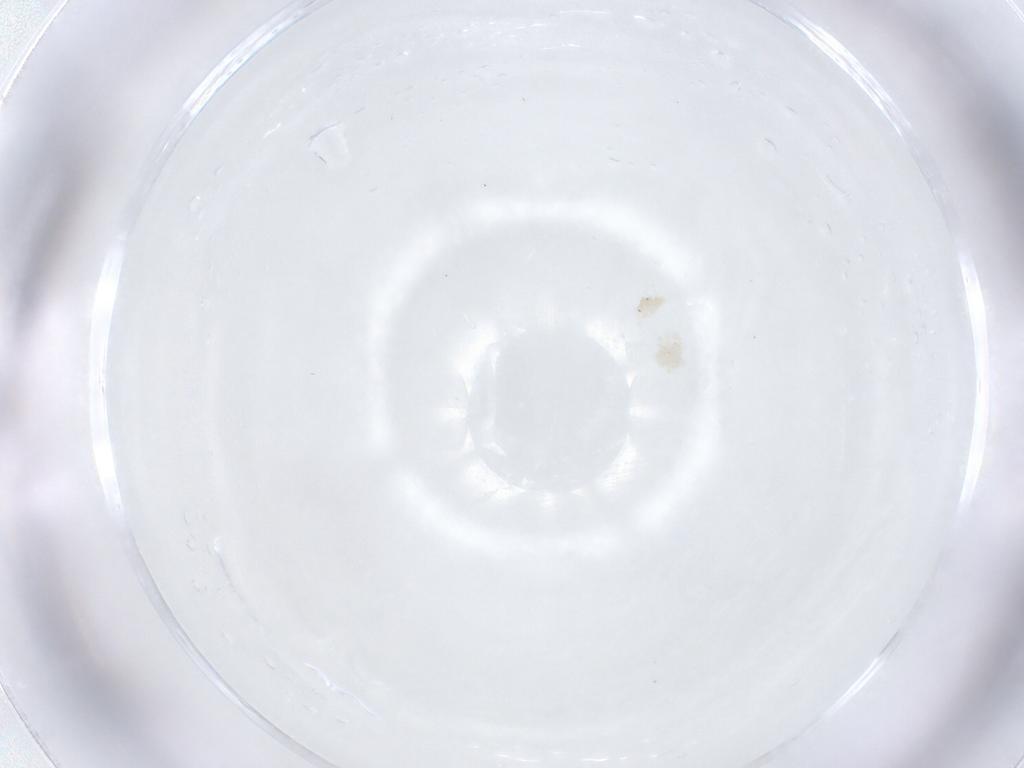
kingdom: Animalia
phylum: Arthropoda
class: Arachnida
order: Trombidiformes
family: Anystidae
